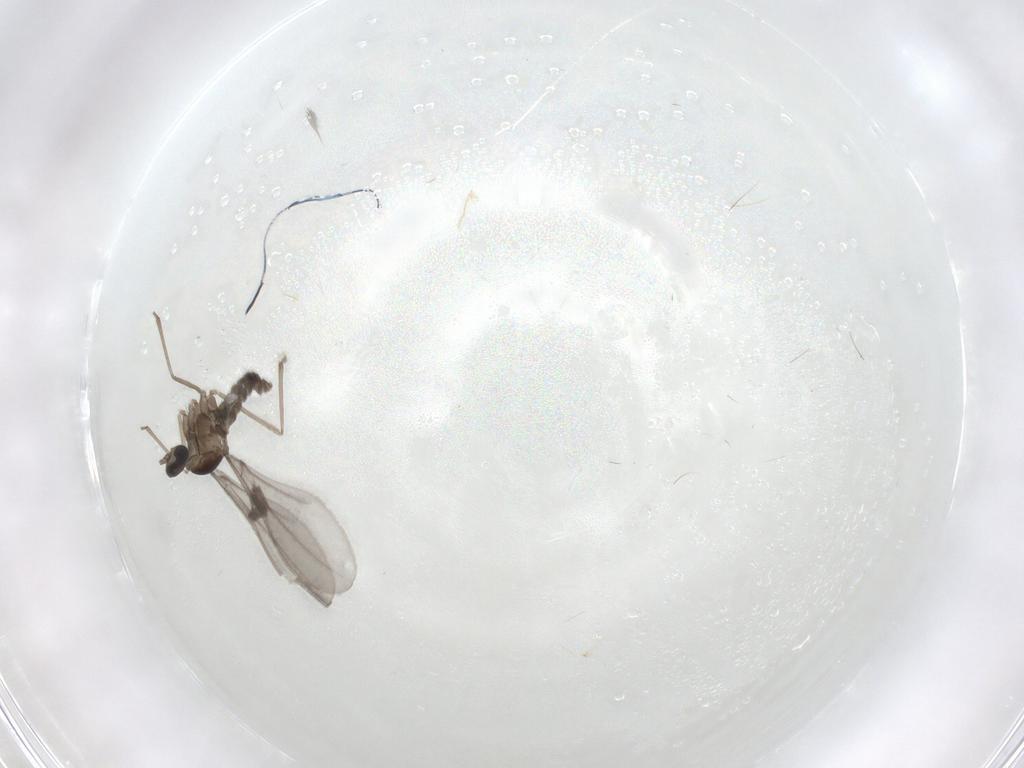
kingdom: Animalia
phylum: Arthropoda
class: Insecta
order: Diptera
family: Cecidomyiidae
